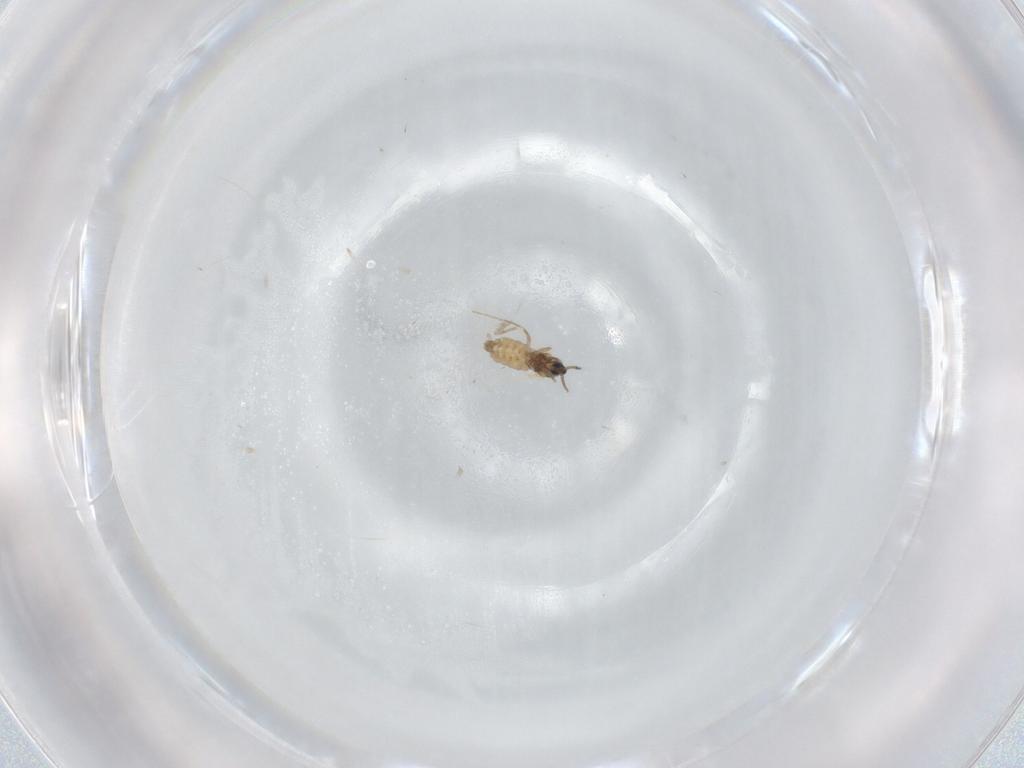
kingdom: Animalia
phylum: Arthropoda
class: Insecta
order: Diptera
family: Cecidomyiidae
